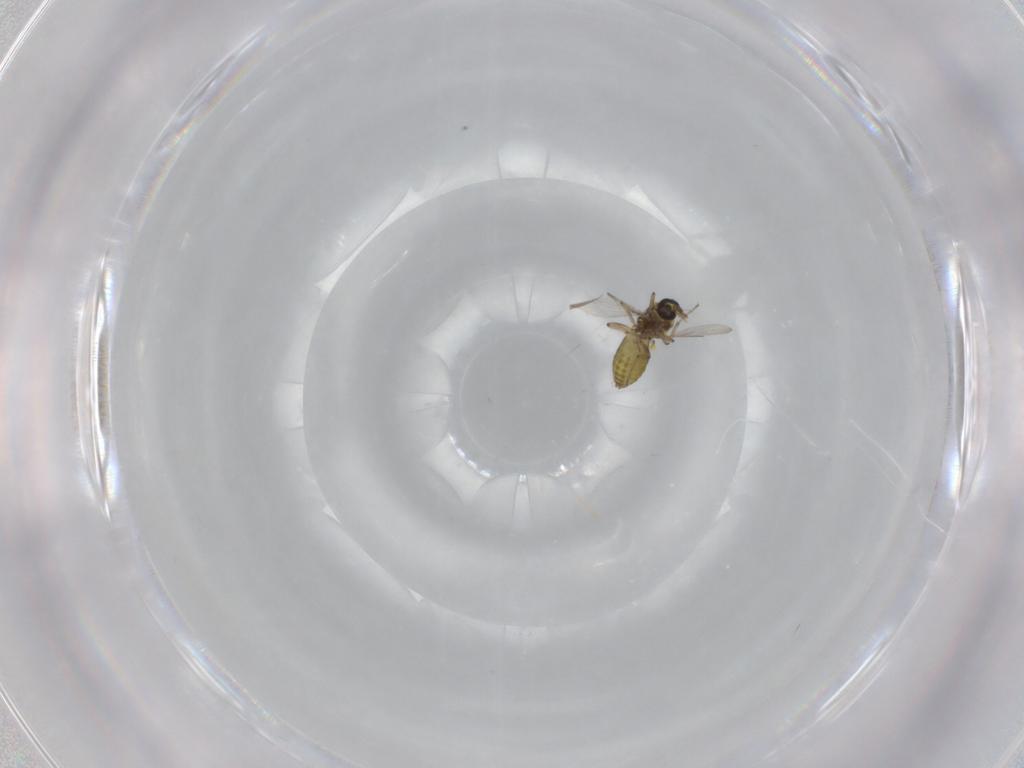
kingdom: Animalia
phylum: Arthropoda
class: Insecta
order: Diptera
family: Ceratopogonidae
